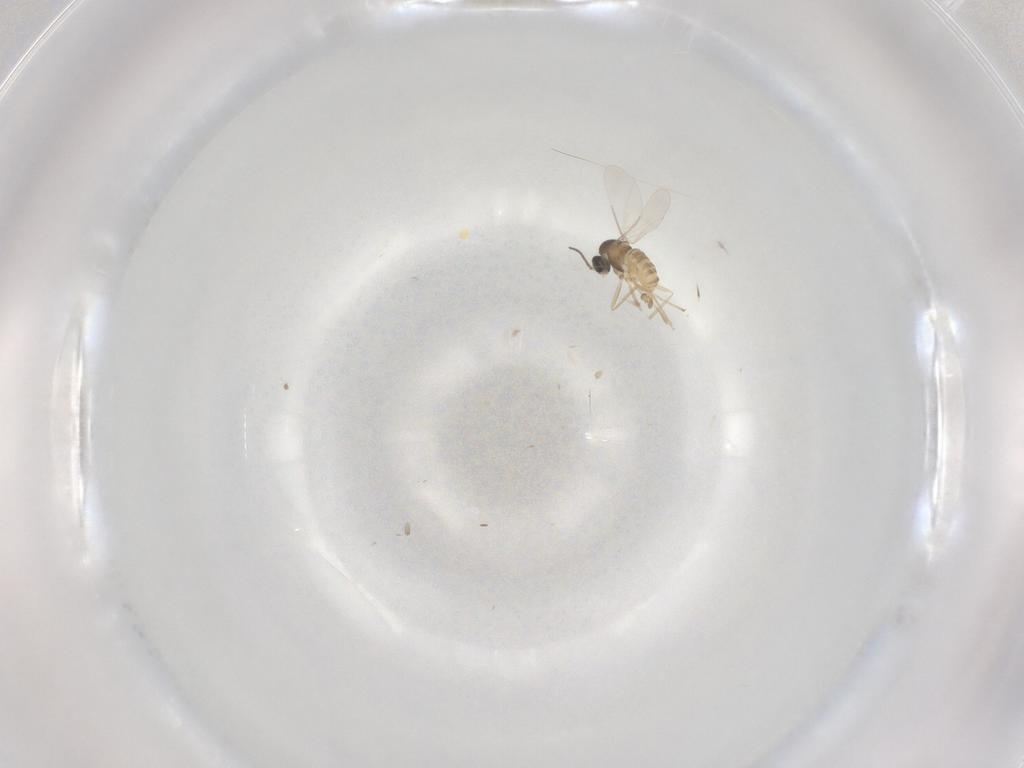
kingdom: Animalia
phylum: Arthropoda
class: Insecta
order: Diptera
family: Cecidomyiidae
